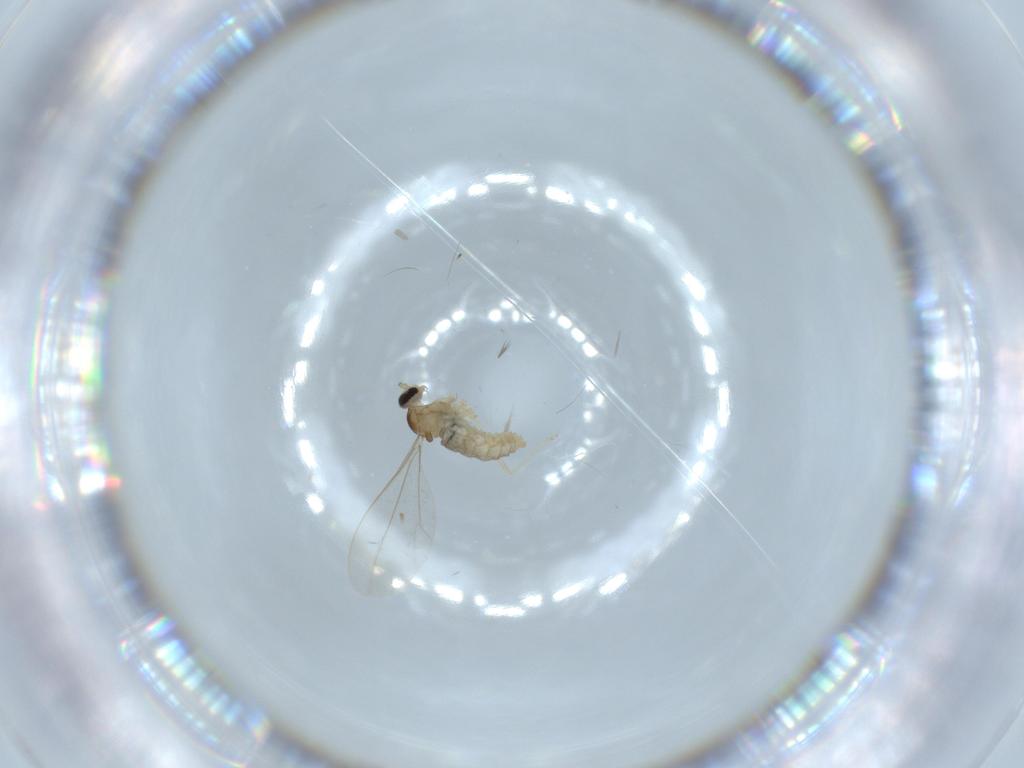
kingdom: Animalia
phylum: Arthropoda
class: Insecta
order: Diptera
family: Cecidomyiidae
